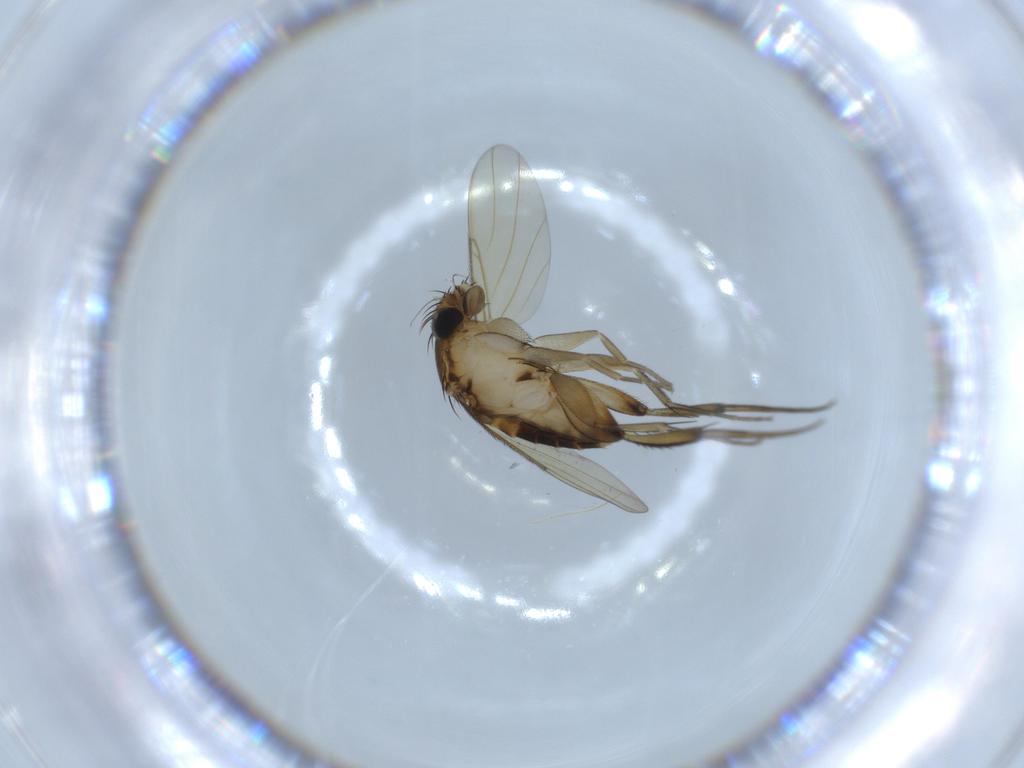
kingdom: Animalia
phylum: Arthropoda
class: Insecta
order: Diptera
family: Phoridae
